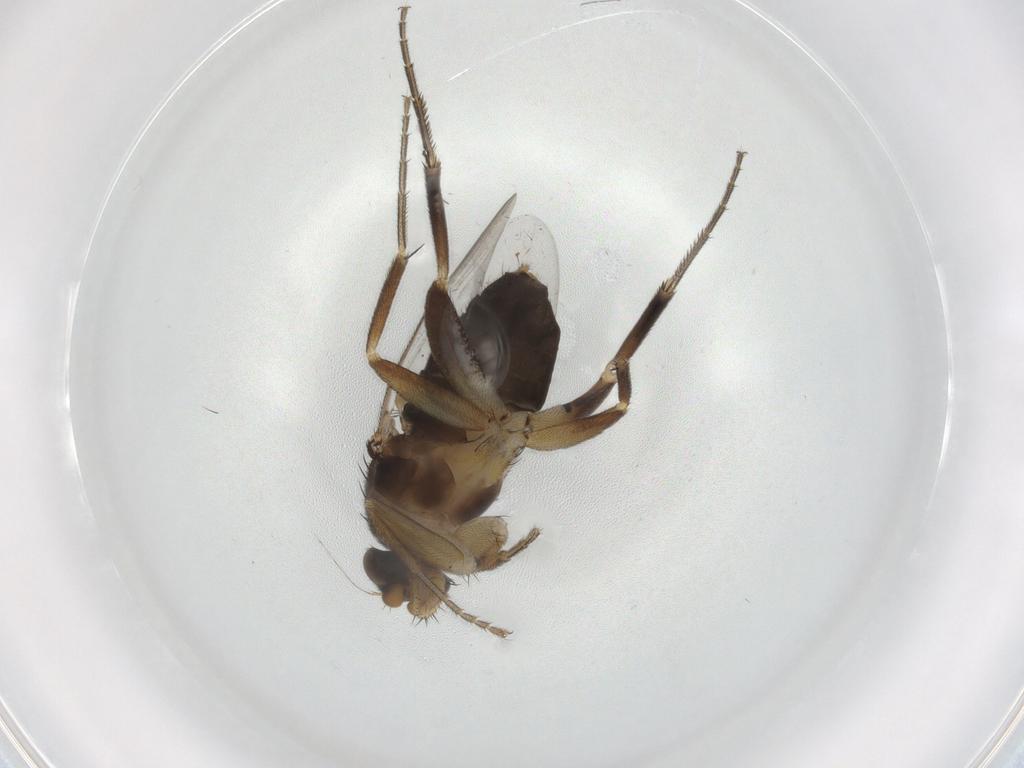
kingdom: Animalia
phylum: Arthropoda
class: Insecta
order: Diptera
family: Phoridae
